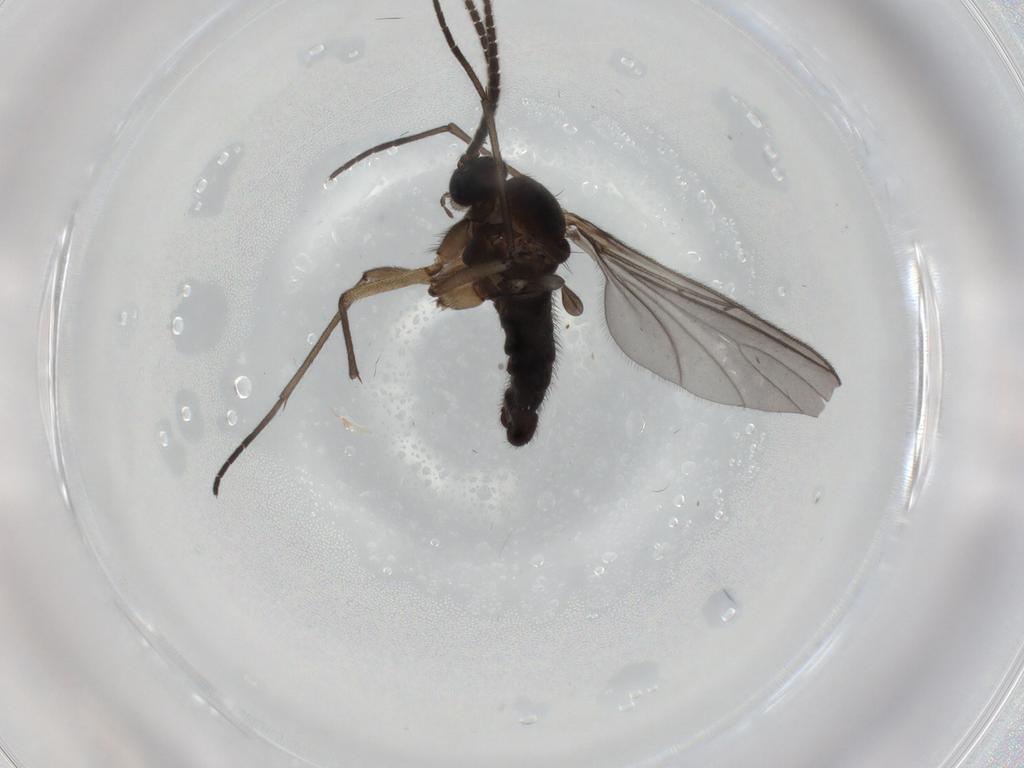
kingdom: Animalia
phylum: Arthropoda
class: Insecta
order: Diptera
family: Sciaridae
